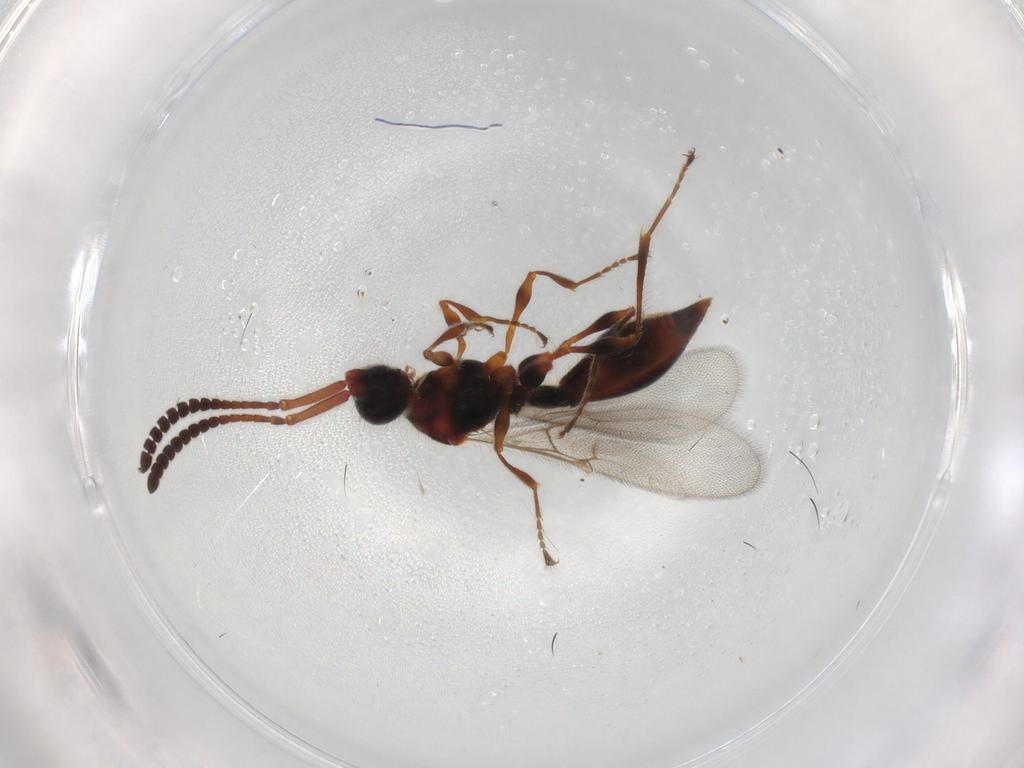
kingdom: Animalia
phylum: Arthropoda
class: Insecta
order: Hymenoptera
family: Diapriidae
